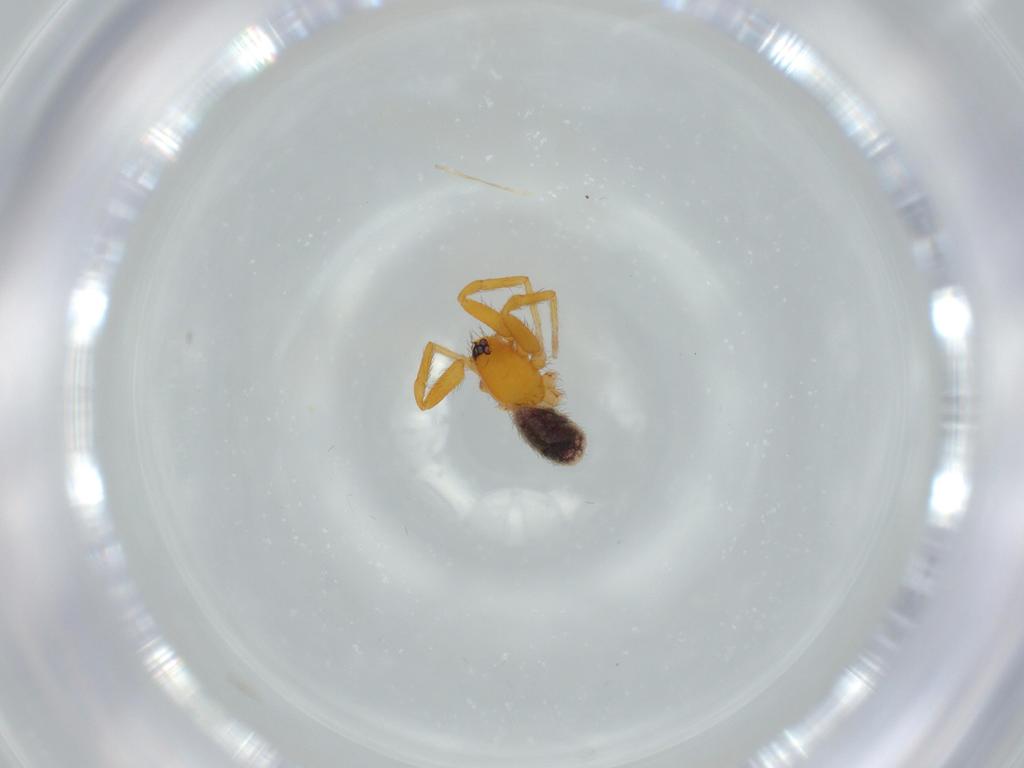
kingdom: Animalia
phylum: Arthropoda
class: Arachnida
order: Araneae
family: Oonopidae
